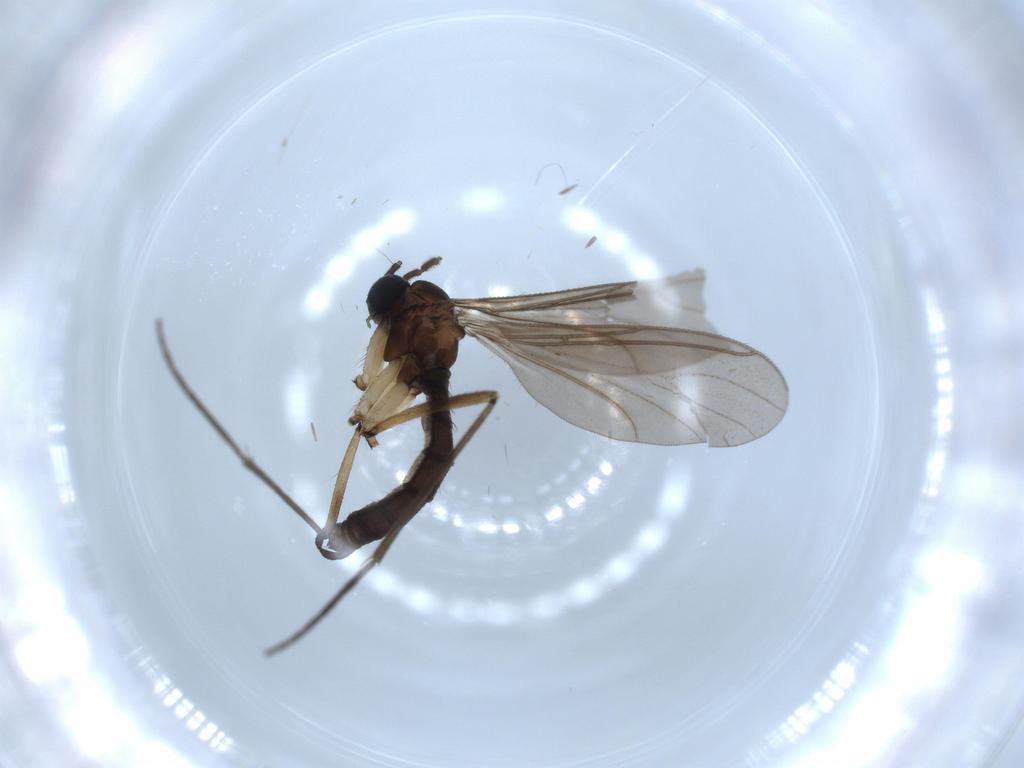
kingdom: Animalia
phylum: Arthropoda
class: Insecta
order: Diptera
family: Sciaridae
